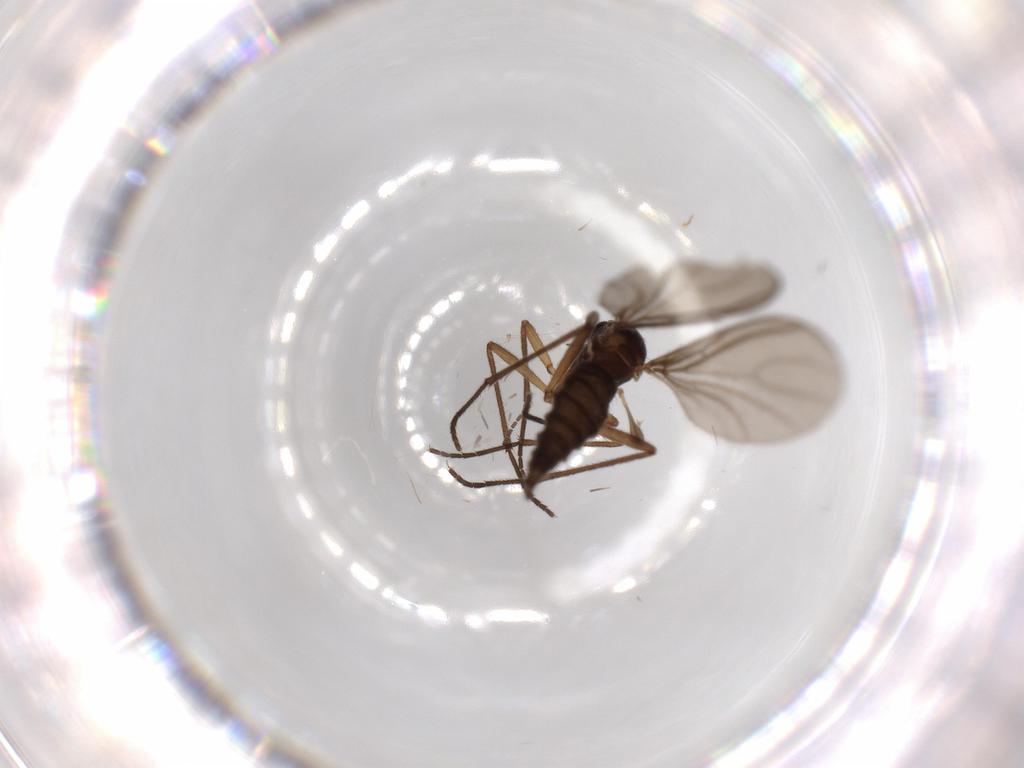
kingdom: Animalia
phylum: Arthropoda
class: Insecta
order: Diptera
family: Sciaridae
